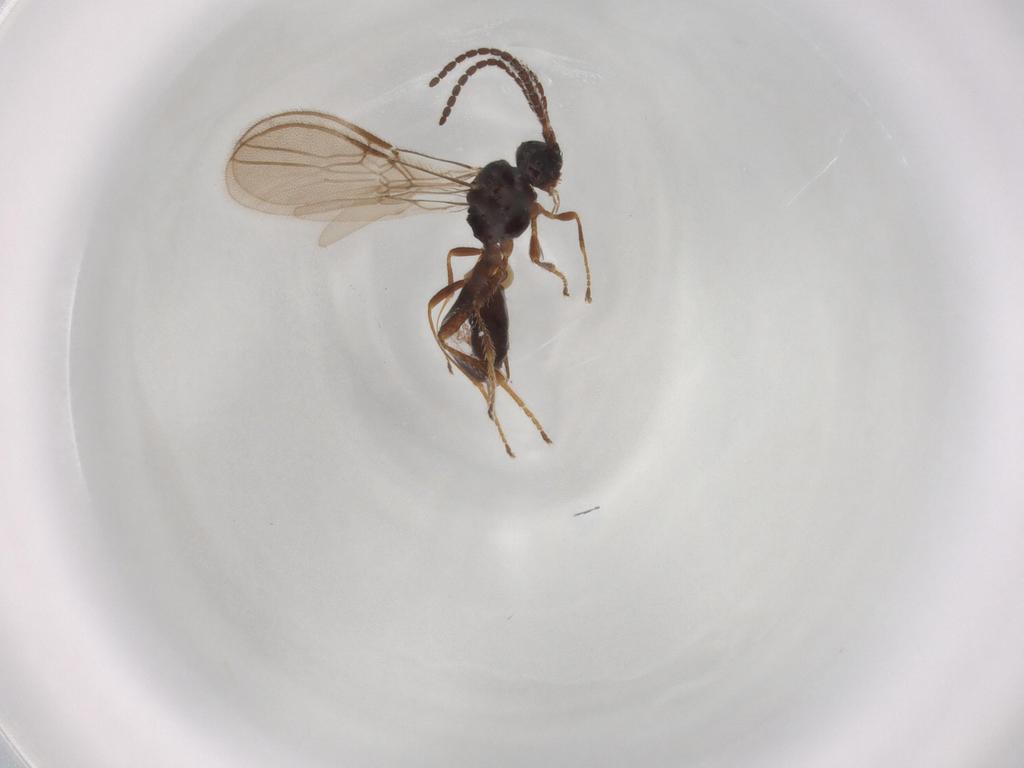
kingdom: Animalia
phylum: Arthropoda
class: Insecta
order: Hymenoptera
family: Braconidae
